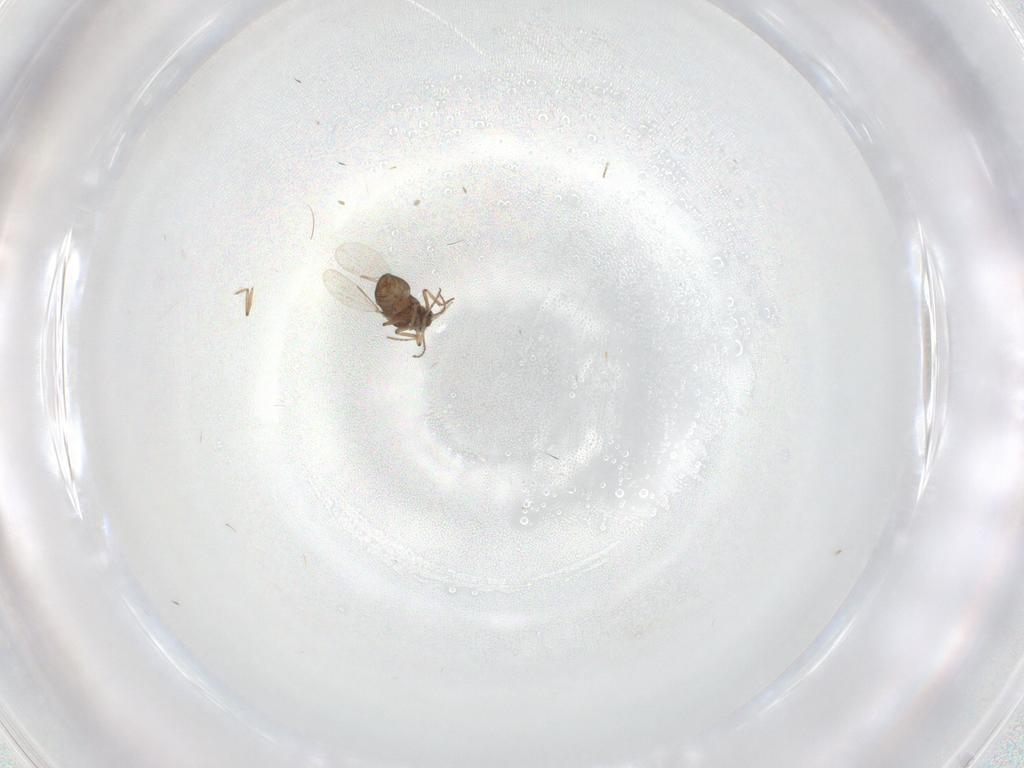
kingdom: Animalia
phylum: Arthropoda
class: Insecta
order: Diptera
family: Ceratopogonidae
